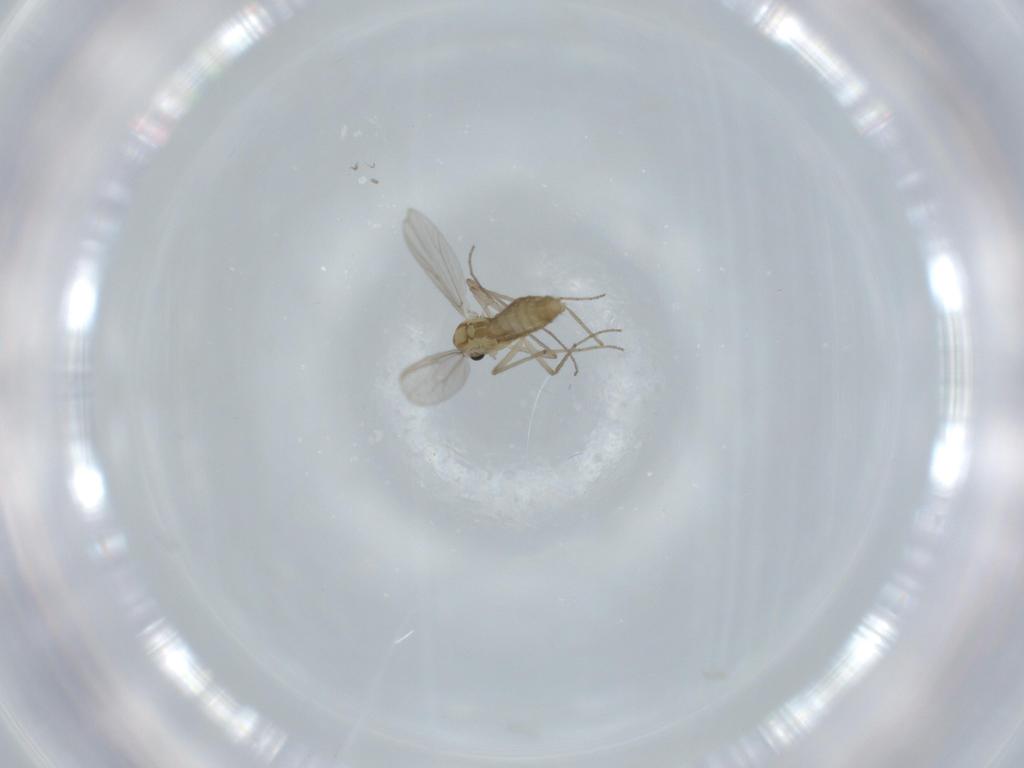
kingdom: Animalia
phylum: Arthropoda
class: Insecta
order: Diptera
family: Chironomidae
